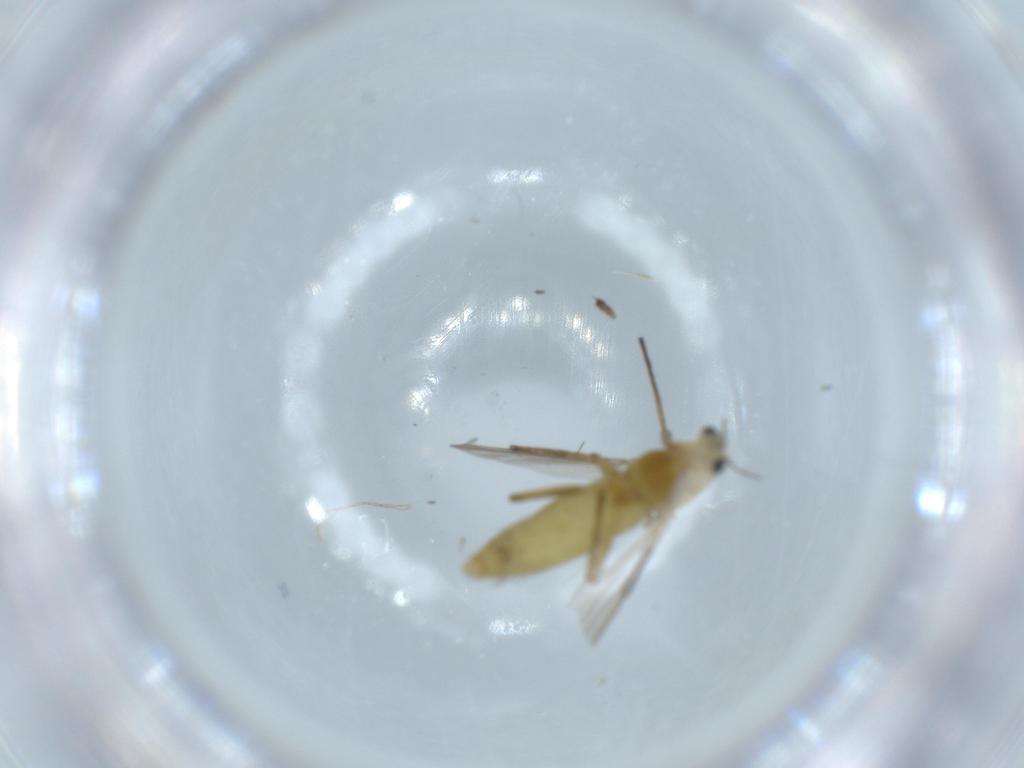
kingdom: Animalia
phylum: Arthropoda
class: Insecta
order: Diptera
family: Chironomidae
